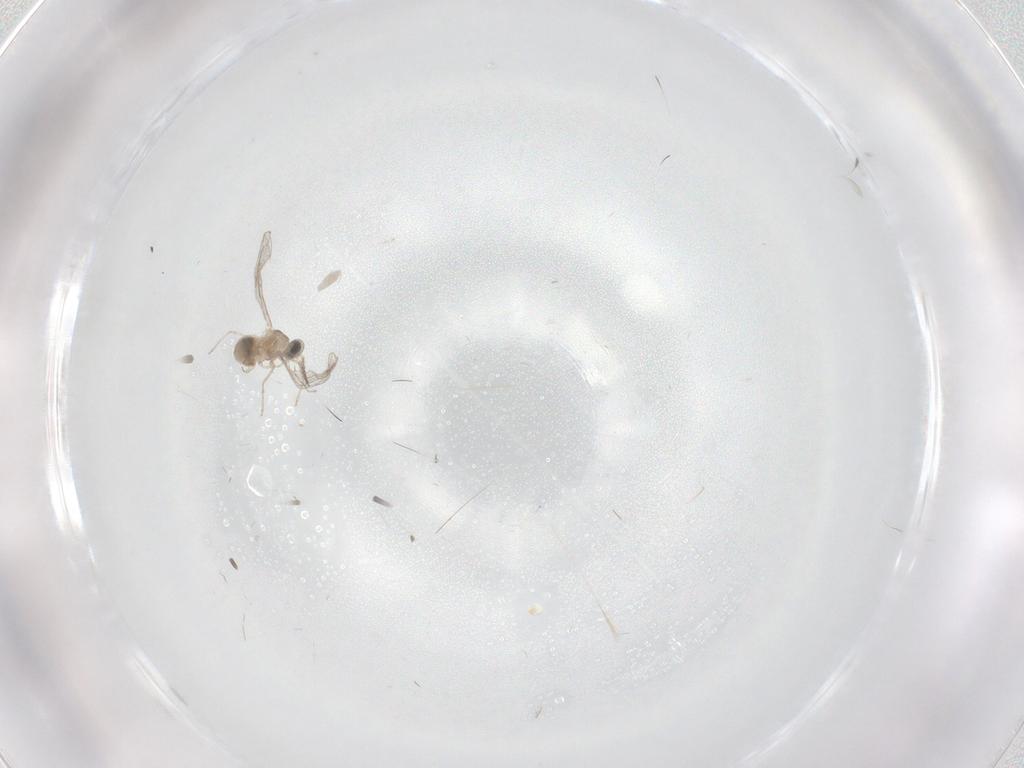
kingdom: Animalia
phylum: Arthropoda
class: Insecta
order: Diptera
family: Cecidomyiidae
